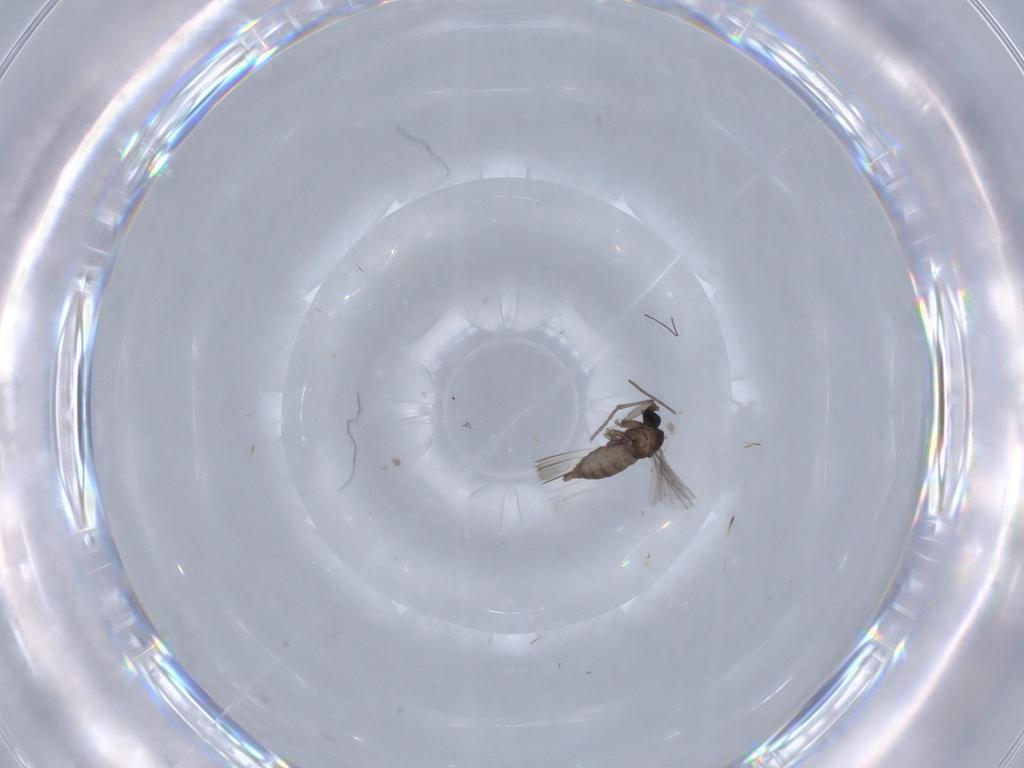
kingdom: Animalia
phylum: Arthropoda
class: Insecta
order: Diptera
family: Sciaridae
